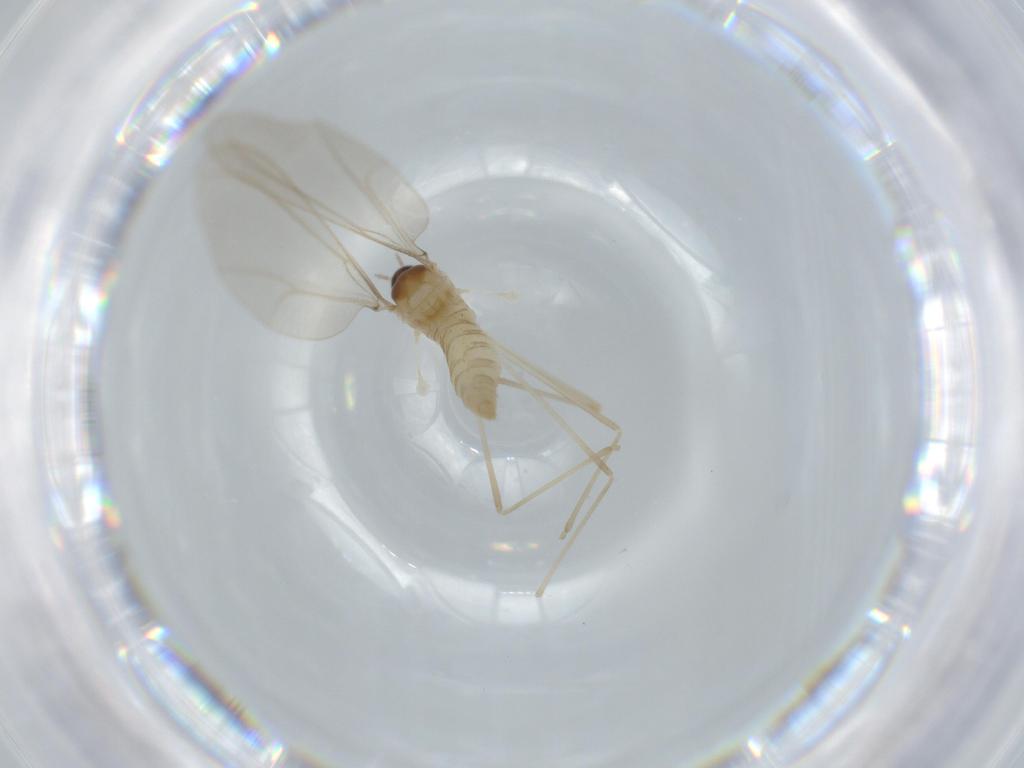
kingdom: Animalia
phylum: Arthropoda
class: Insecta
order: Diptera
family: Cecidomyiidae
